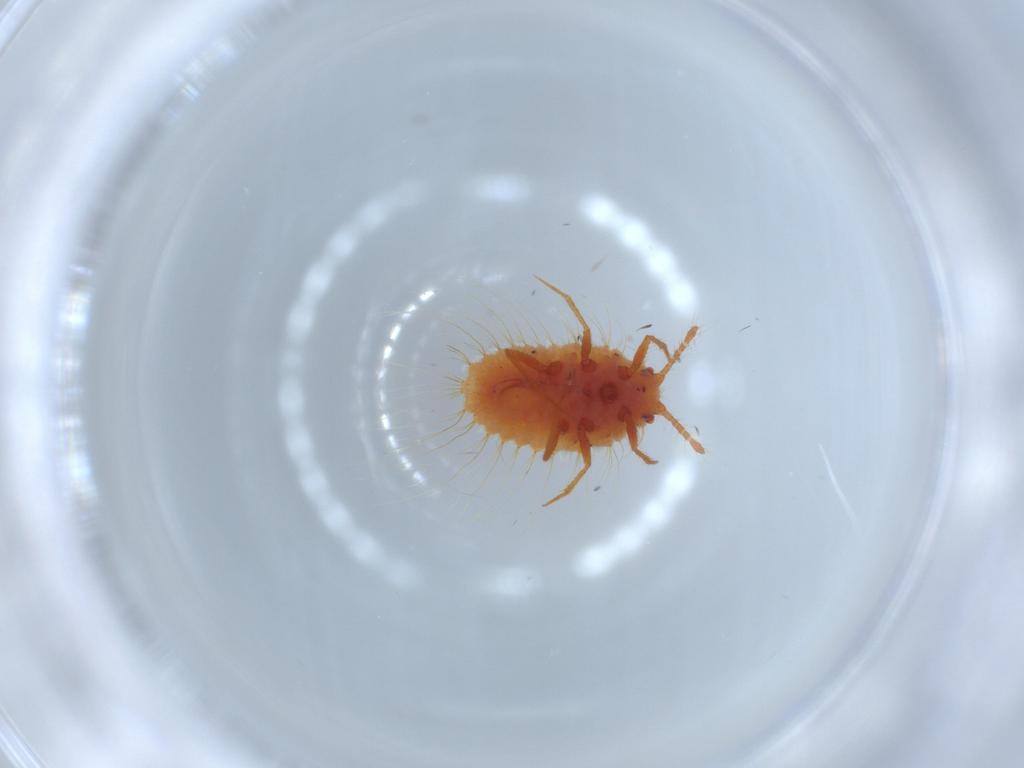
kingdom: Animalia
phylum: Arthropoda
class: Insecta
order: Hemiptera
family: Coccoidea_incertae_sedis
